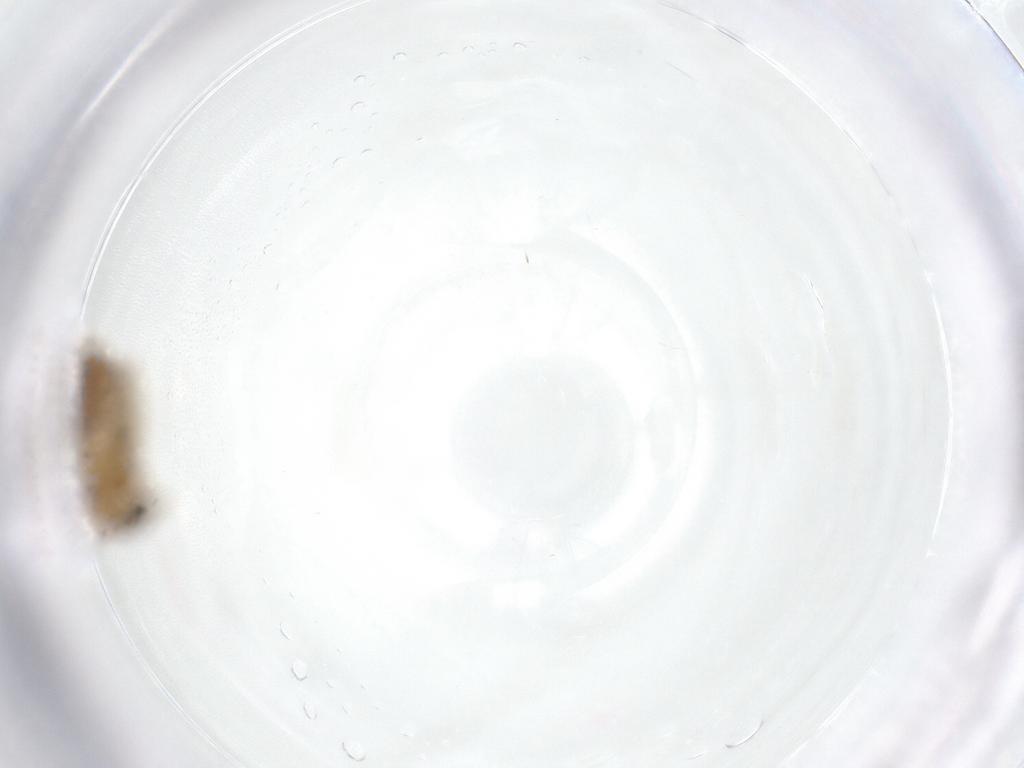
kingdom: Animalia
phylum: Arthropoda
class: Insecta
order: Diptera
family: Chironomidae
